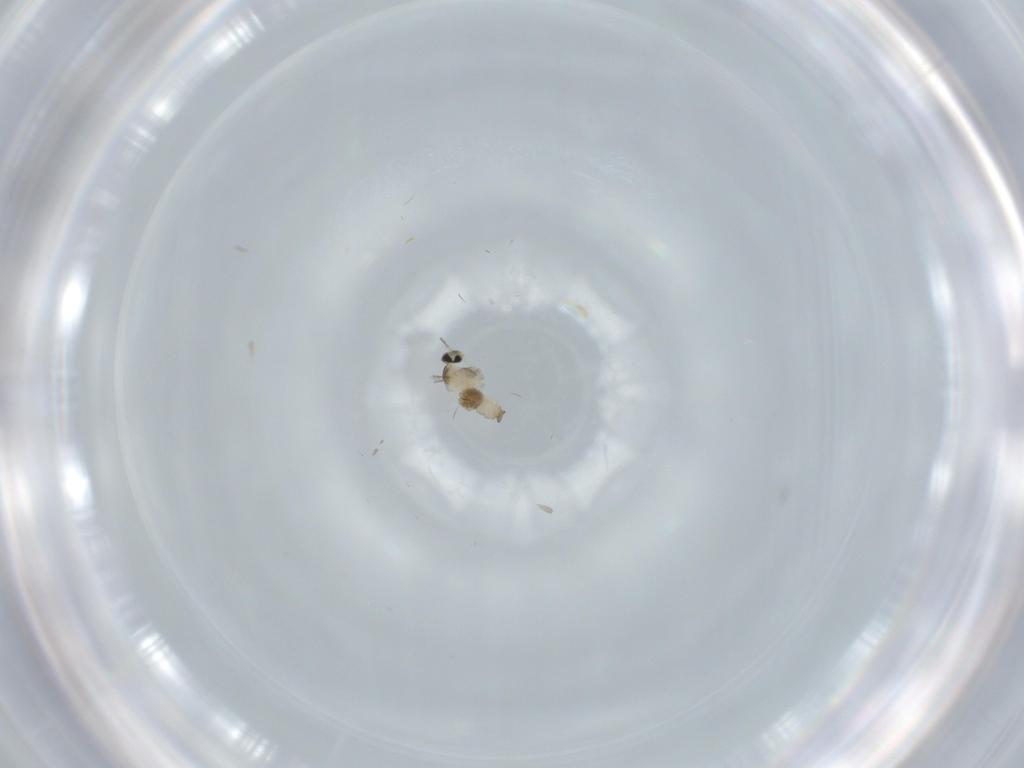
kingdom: Animalia
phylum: Arthropoda
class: Insecta
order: Diptera
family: Cecidomyiidae
